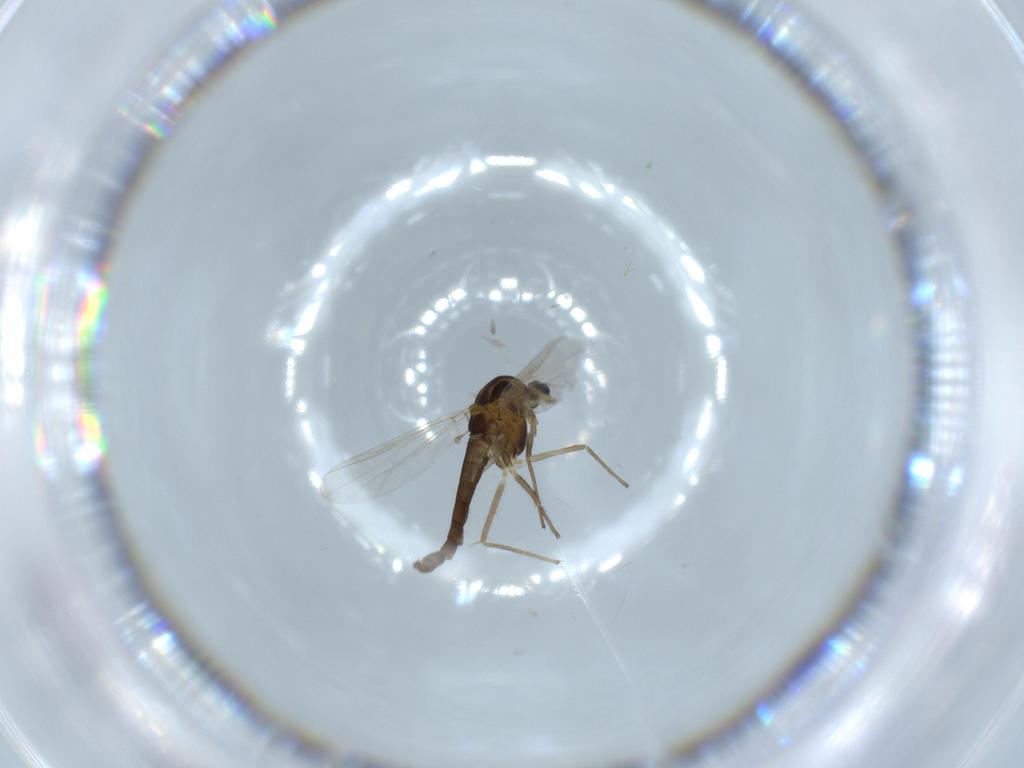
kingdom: Animalia
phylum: Arthropoda
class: Insecta
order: Diptera
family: Chironomidae
